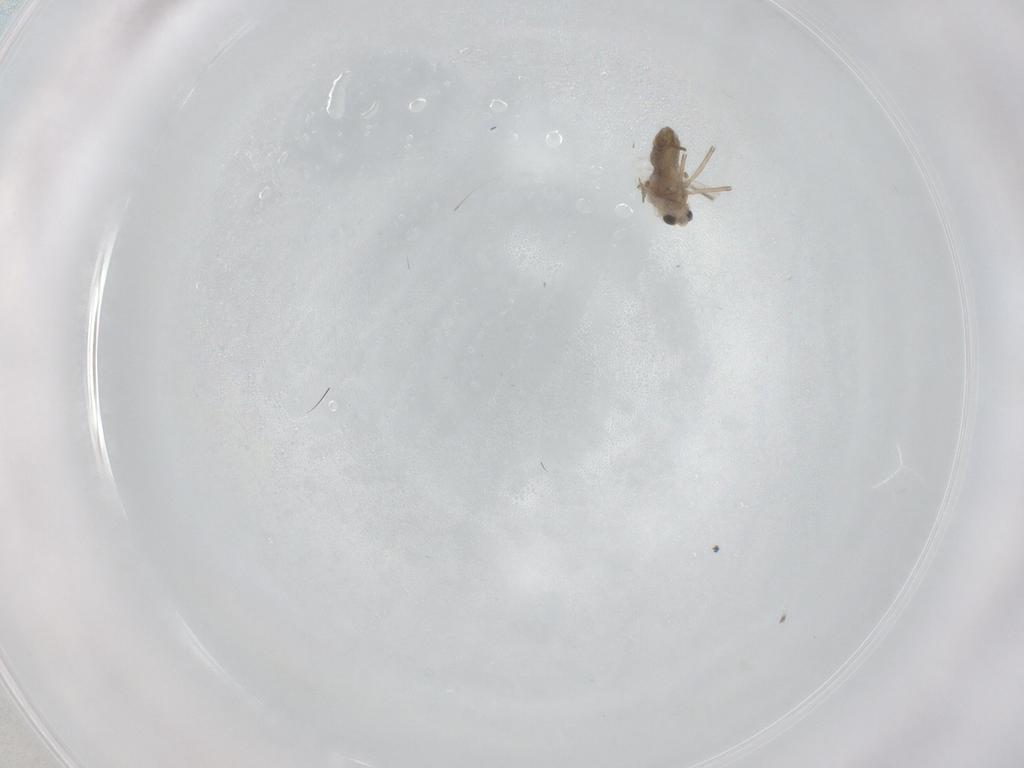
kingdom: Animalia
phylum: Arthropoda
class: Insecta
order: Diptera
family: Chironomidae
